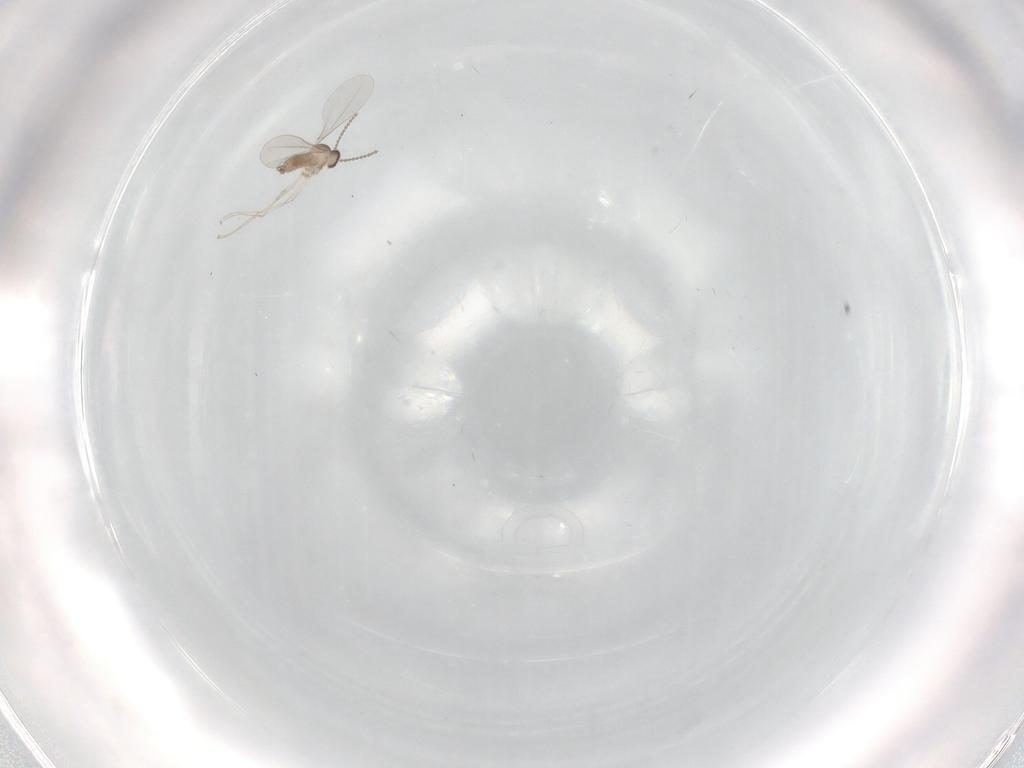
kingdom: Animalia
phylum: Arthropoda
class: Insecta
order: Diptera
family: Cecidomyiidae
